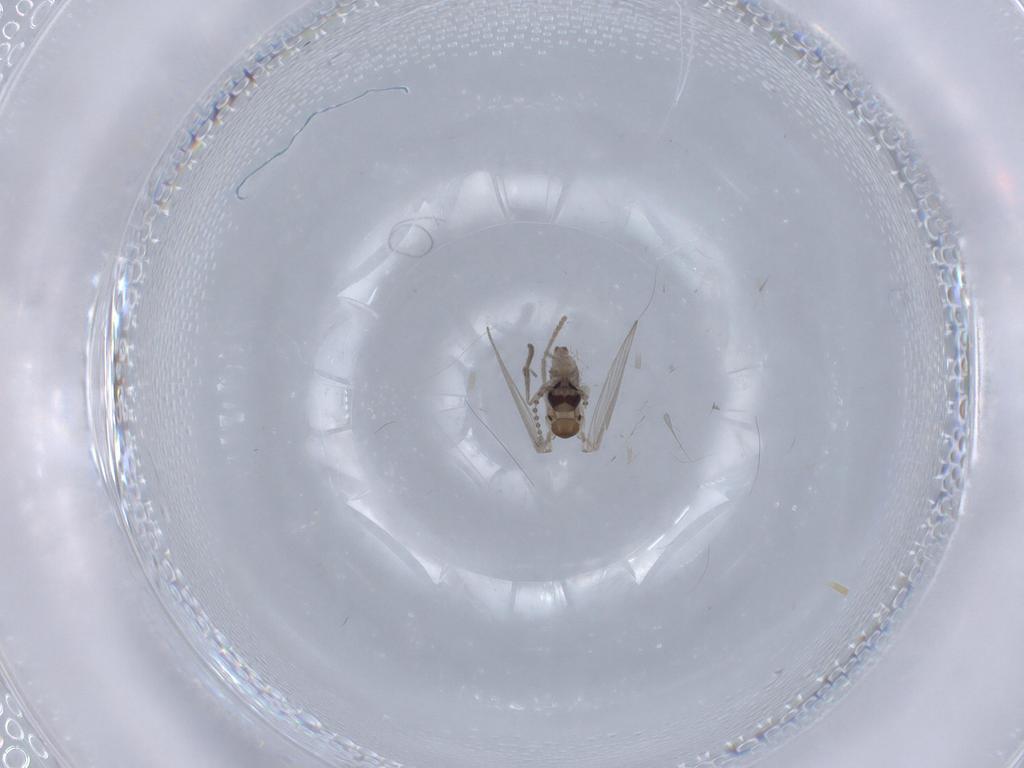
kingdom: Animalia
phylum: Arthropoda
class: Insecta
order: Diptera
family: Psychodidae
